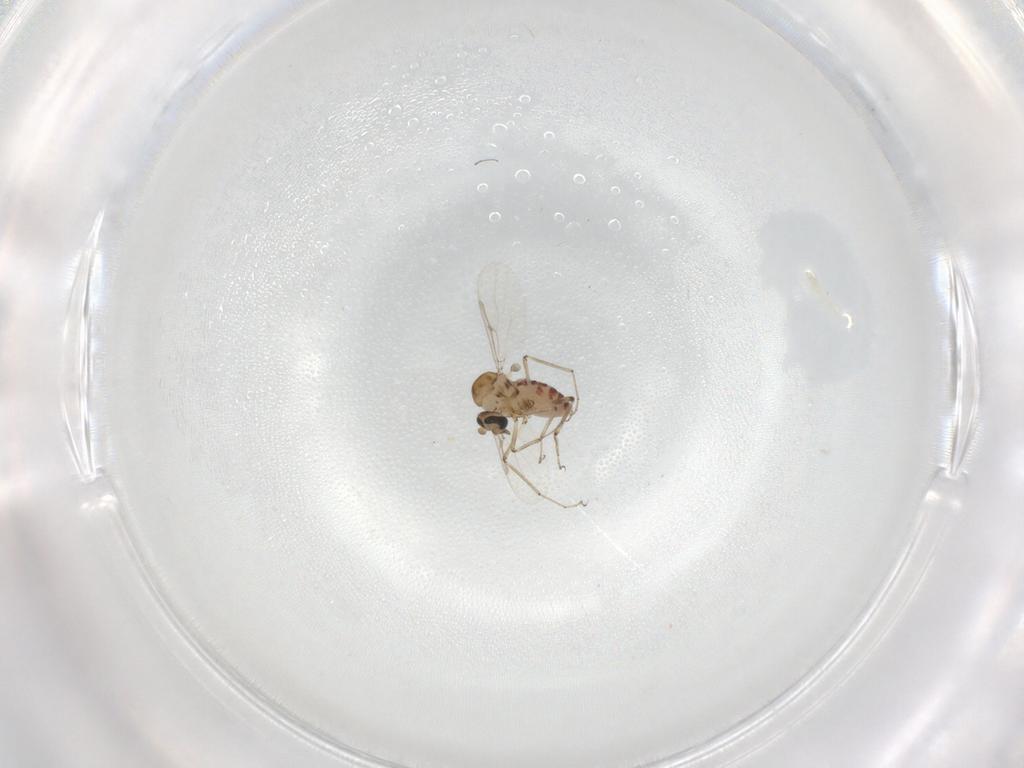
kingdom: Animalia
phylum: Arthropoda
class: Insecta
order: Diptera
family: Ceratopogonidae
